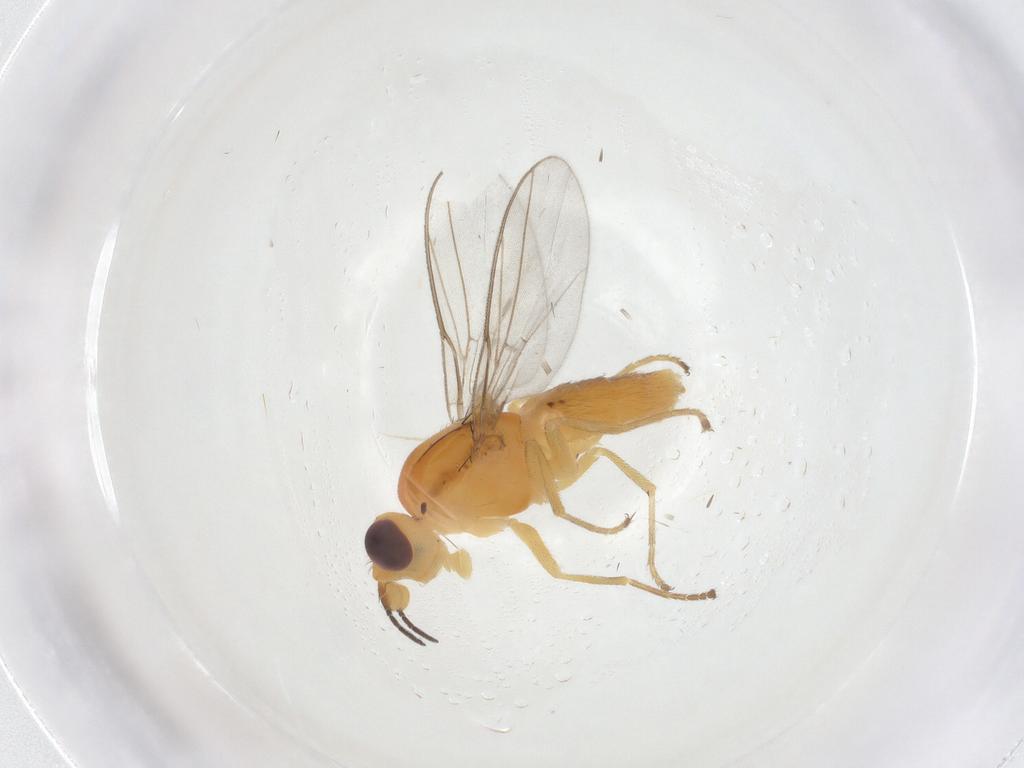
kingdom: Animalia
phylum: Arthropoda
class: Insecta
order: Diptera
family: Chloropidae
